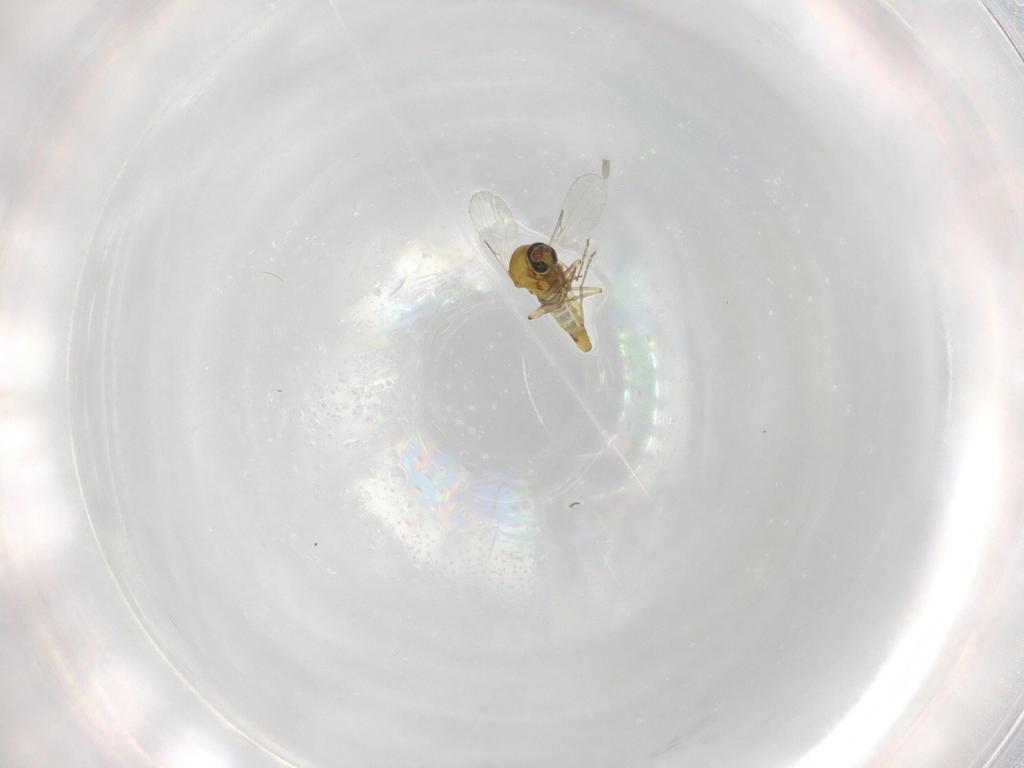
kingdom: Animalia
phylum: Arthropoda
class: Insecta
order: Diptera
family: Ceratopogonidae
